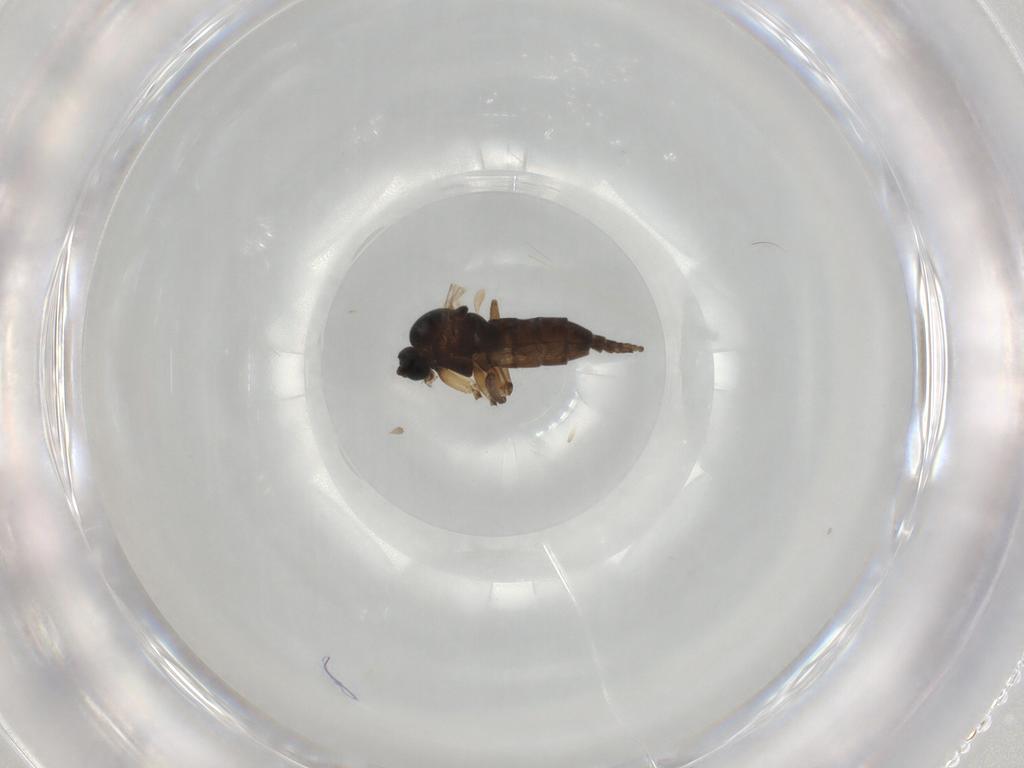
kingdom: Animalia
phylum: Arthropoda
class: Insecta
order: Diptera
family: Sciaridae
